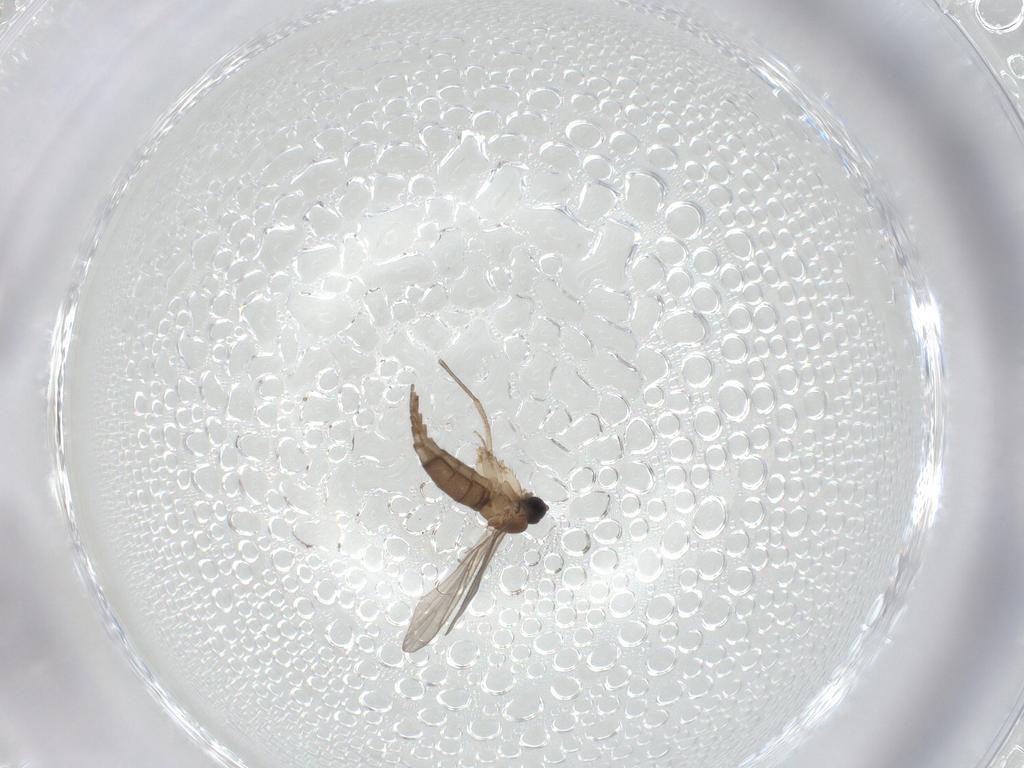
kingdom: Animalia
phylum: Arthropoda
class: Insecta
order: Diptera
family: Sciaridae
